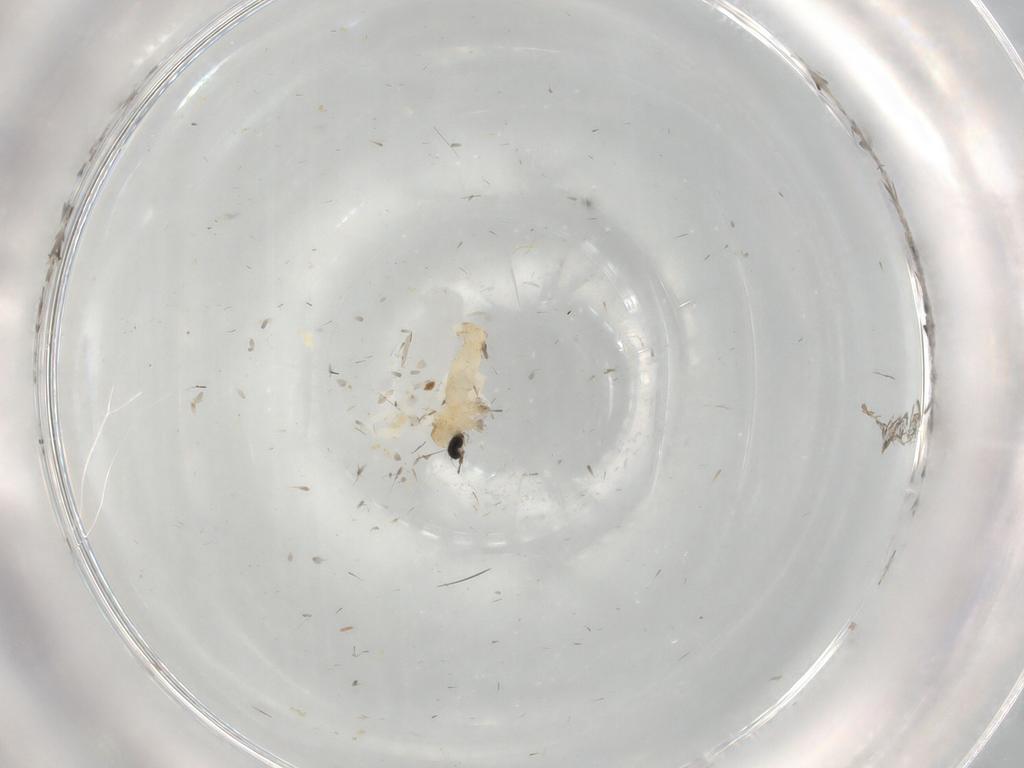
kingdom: Animalia
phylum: Arthropoda
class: Insecta
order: Diptera
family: Cecidomyiidae
